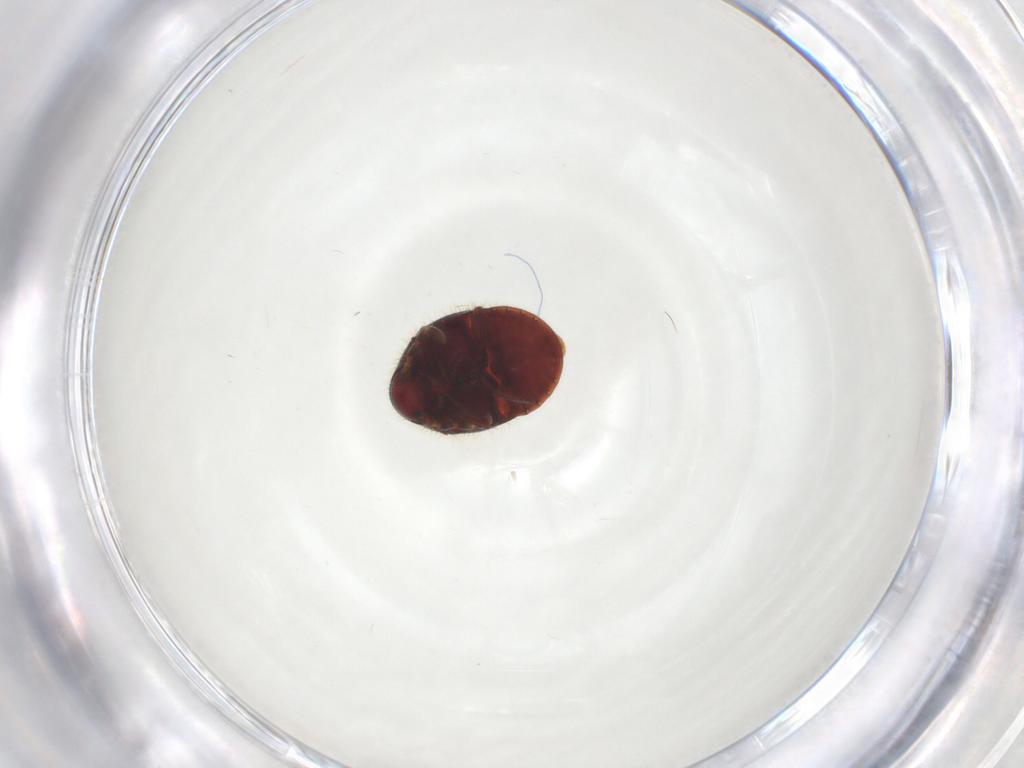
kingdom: Animalia
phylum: Arthropoda
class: Insecta
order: Coleoptera
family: Ptinidae
